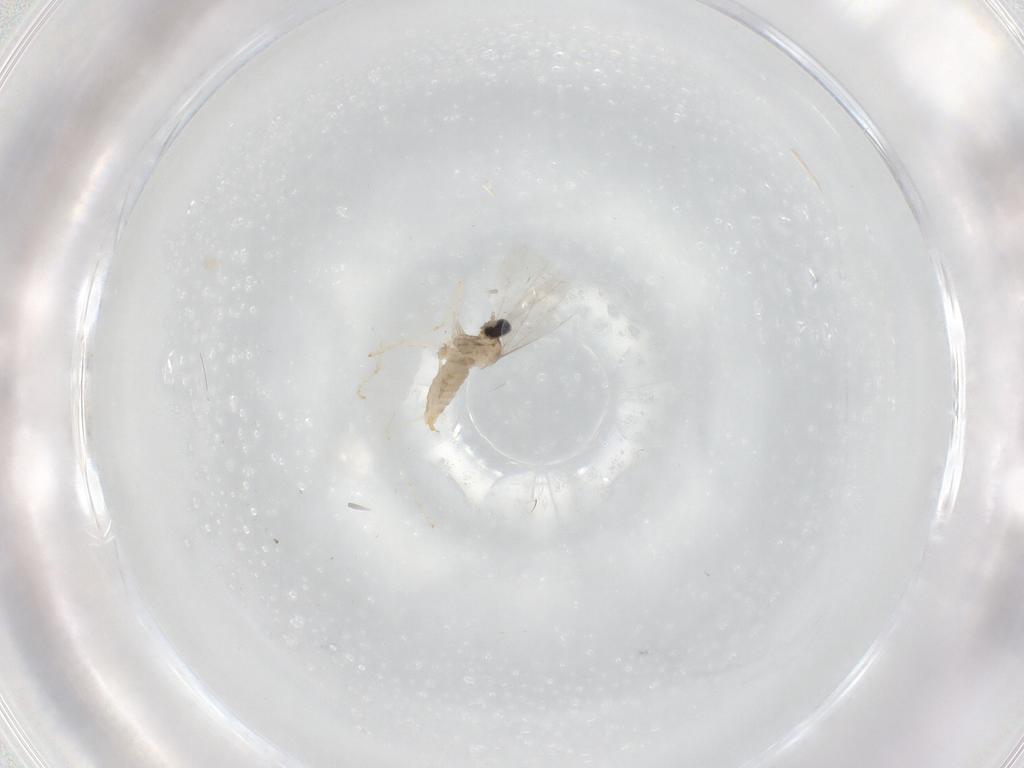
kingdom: Animalia
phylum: Arthropoda
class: Insecta
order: Diptera
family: Cecidomyiidae
